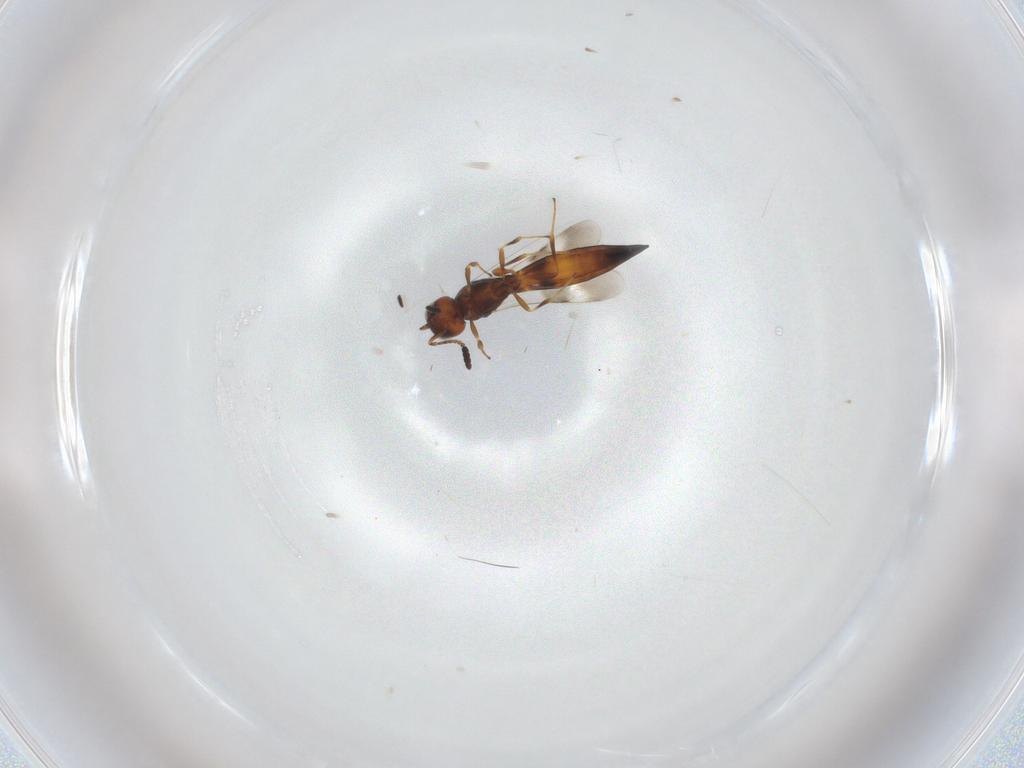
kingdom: Animalia
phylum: Arthropoda
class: Insecta
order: Hymenoptera
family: Scelionidae
